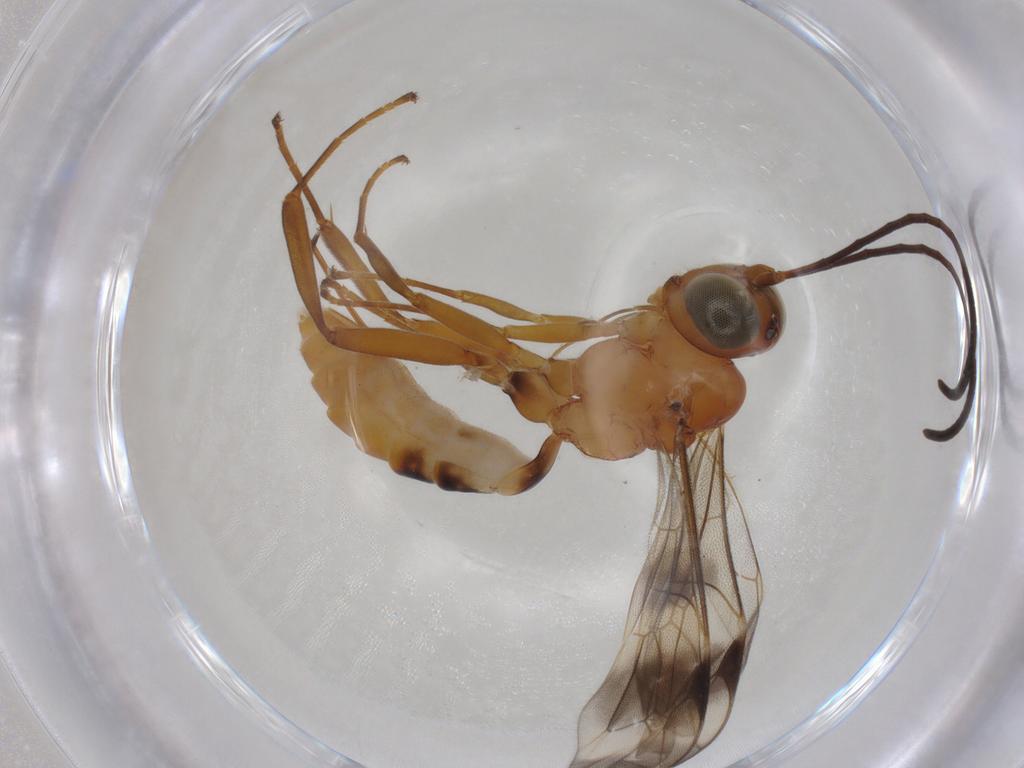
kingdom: Animalia
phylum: Arthropoda
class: Insecta
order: Hymenoptera
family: Ichneumonidae
